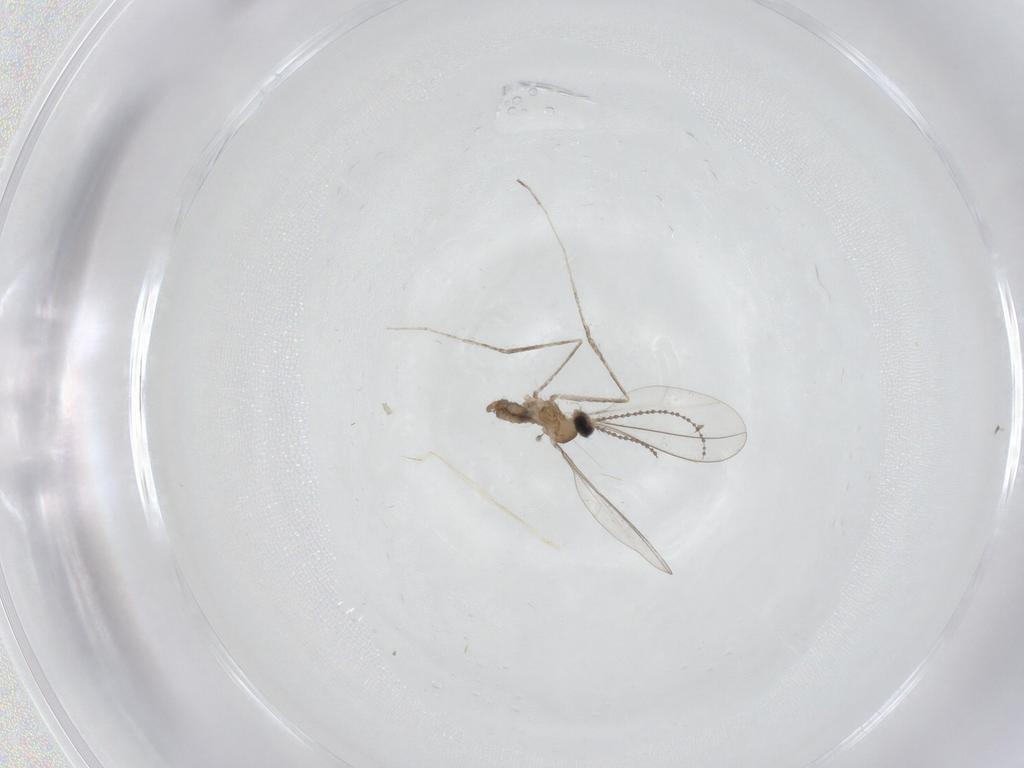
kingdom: Animalia
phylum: Arthropoda
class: Insecta
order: Diptera
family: Cecidomyiidae
